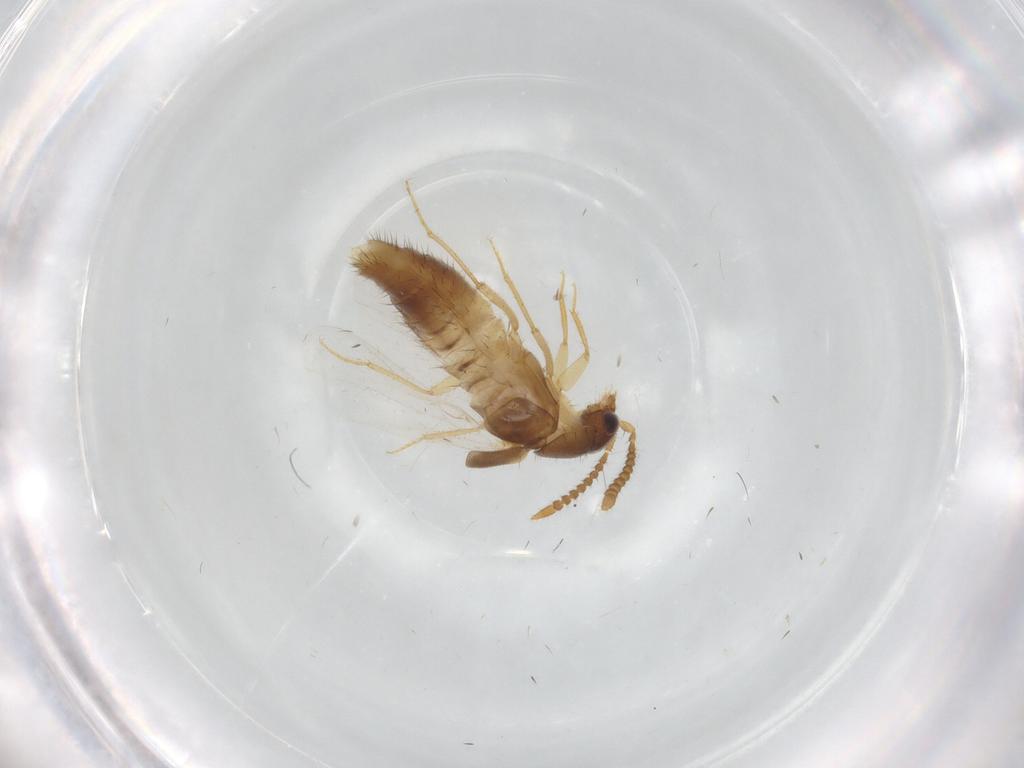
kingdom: Animalia
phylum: Arthropoda
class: Insecta
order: Coleoptera
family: Staphylinidae
